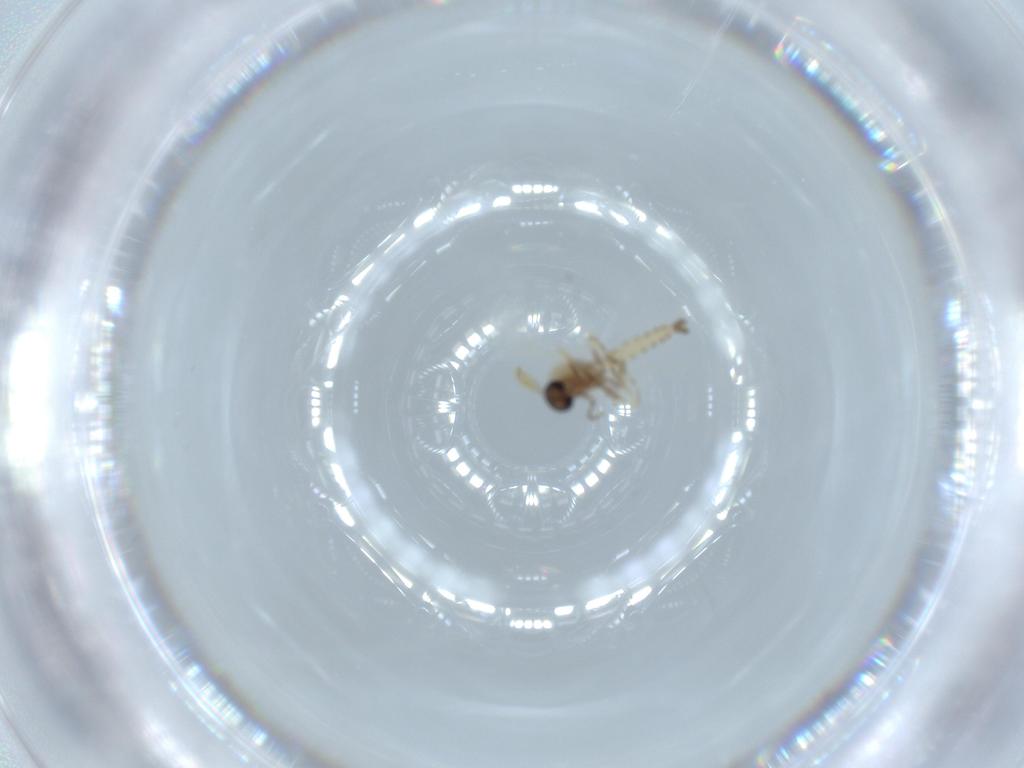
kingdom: Animalia
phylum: Arthropoda
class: Insecta
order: Diptera
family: Ceratopogonidae
